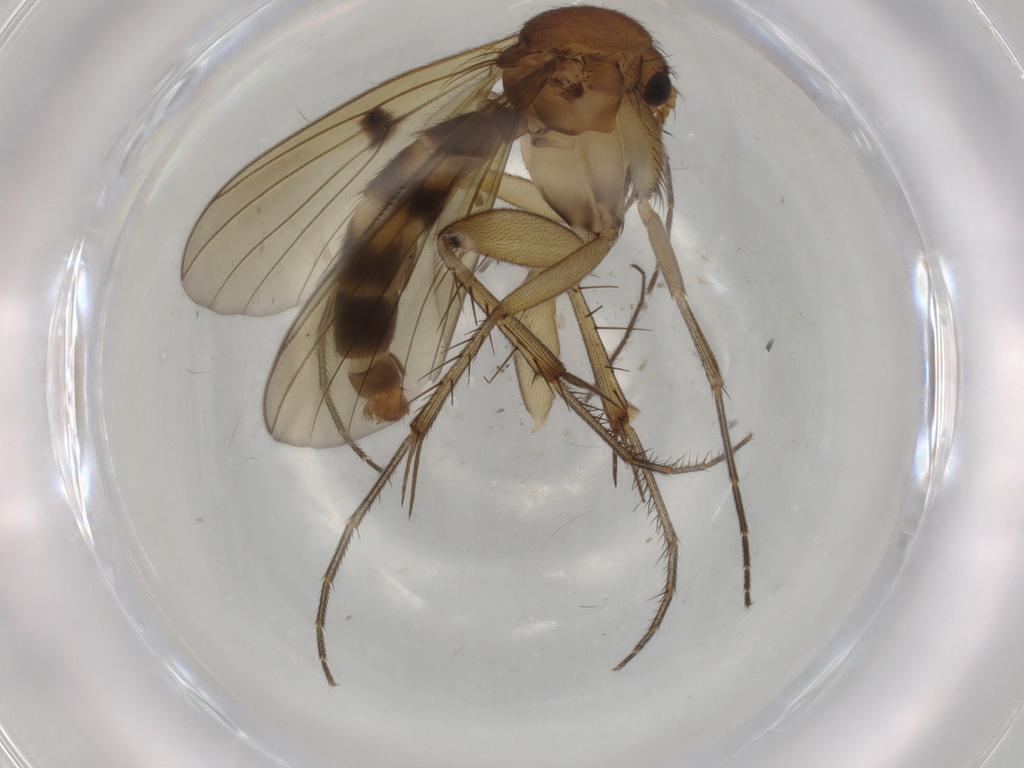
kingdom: Animalia
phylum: Arthropoda
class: Insecta
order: Diptera
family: Mycetophilidae
